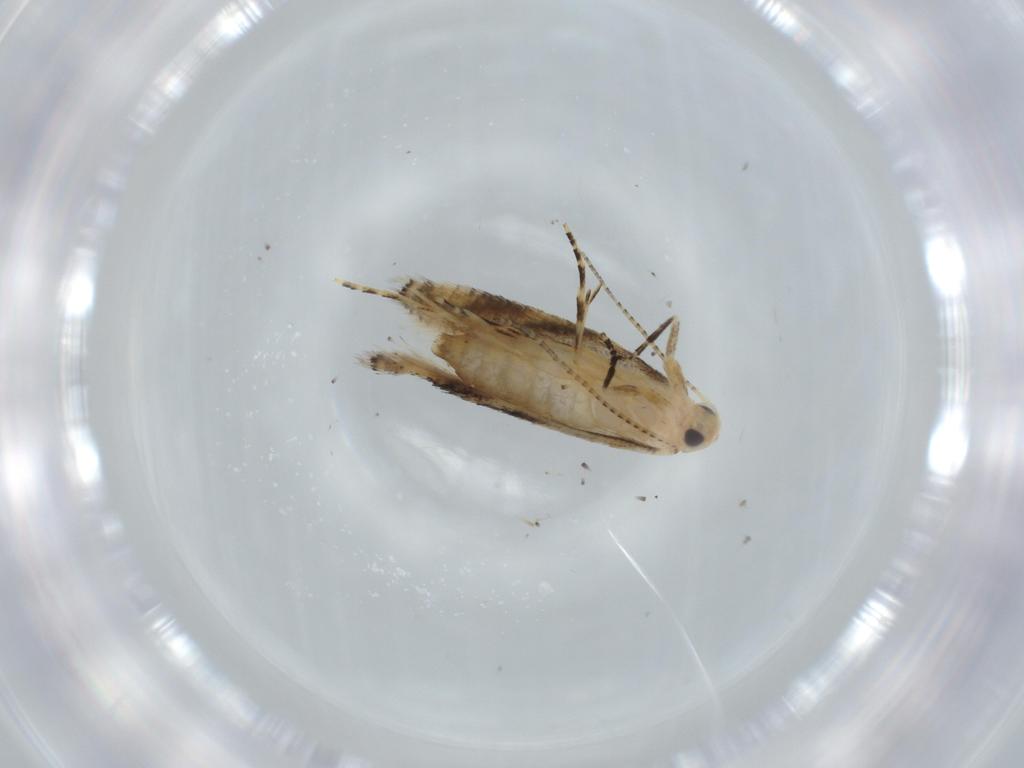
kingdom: Animalia
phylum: Arthropoda
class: Insecta
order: Lepidoptera
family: Bucculatricidae
